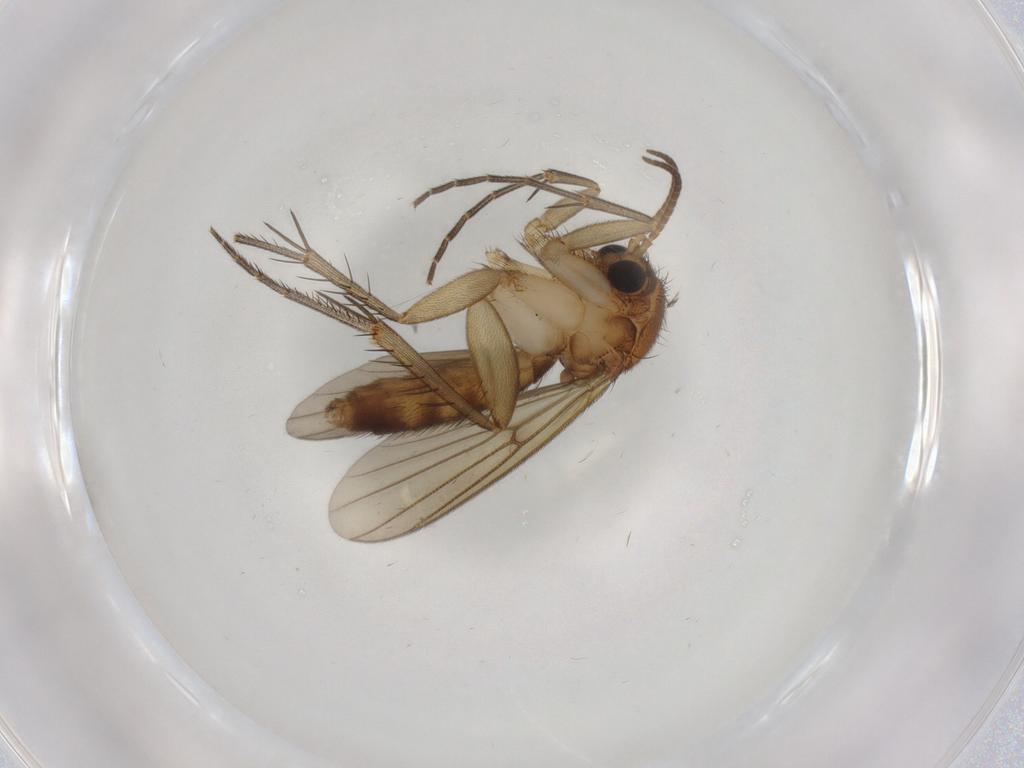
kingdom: Animalia
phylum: Arthropoda
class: Insecta
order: Diptera
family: Mycetophilidae
